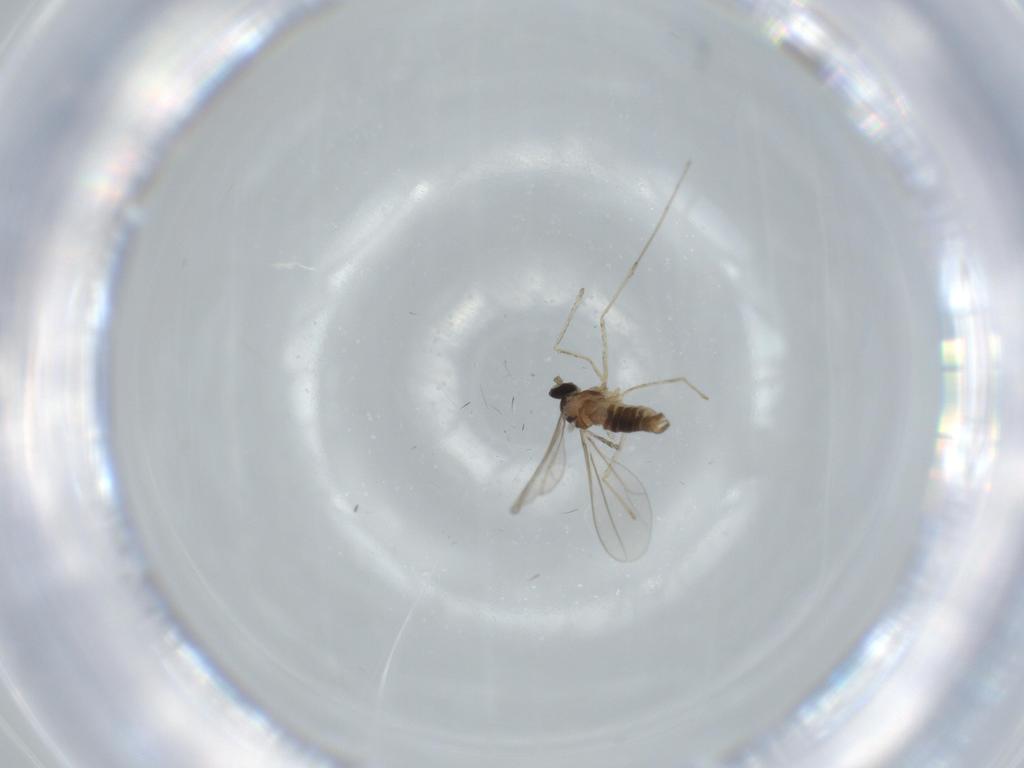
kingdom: Animalia
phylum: Arthropoda
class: Insecta
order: Diptera
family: Cecidomyiidae
